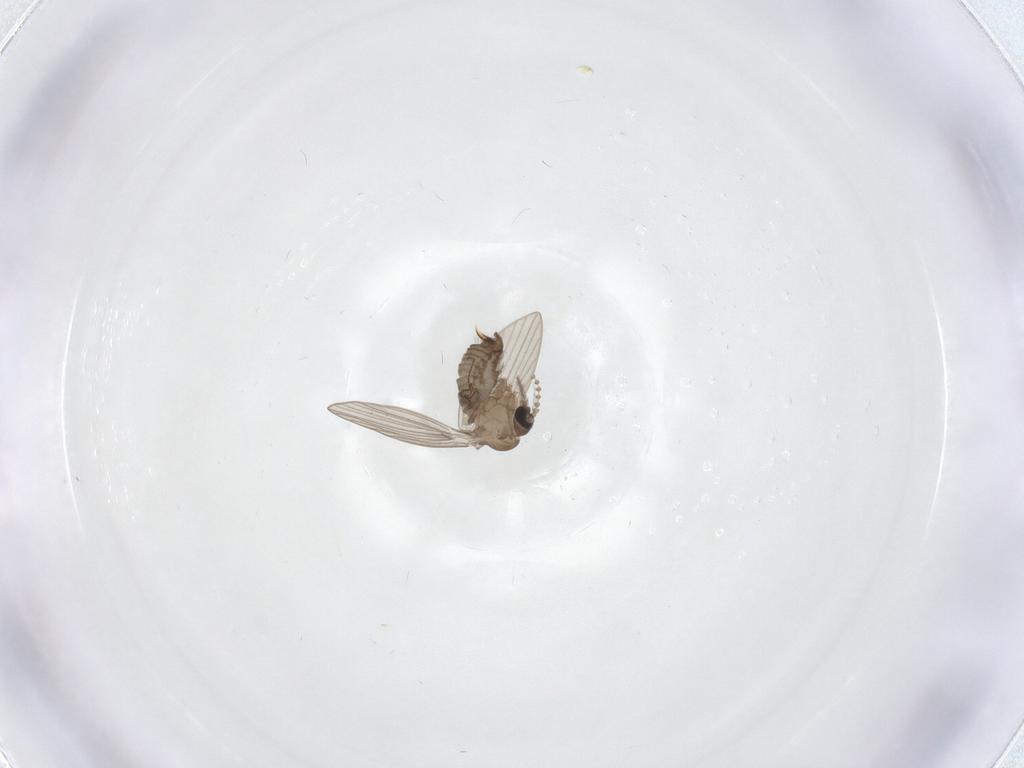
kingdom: Animalia
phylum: Arthropoda
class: Insecta
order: Diptera
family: Psychodidae
